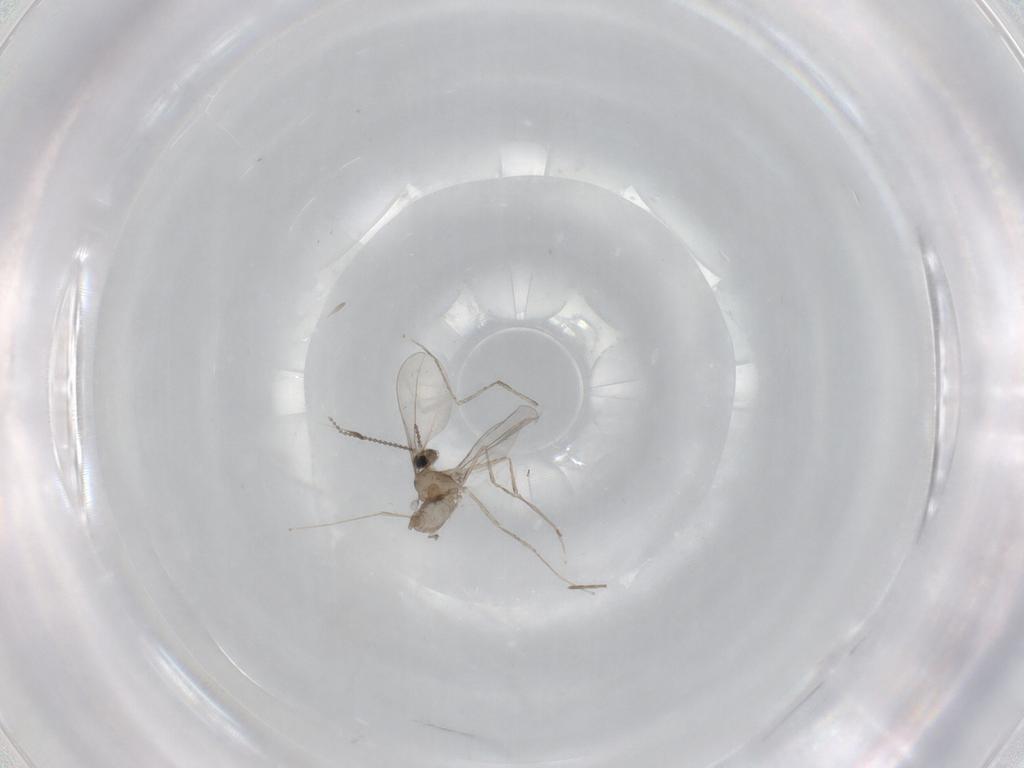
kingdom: Animalia
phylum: Arthropoda
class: Insecta
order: Diptera
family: Cecidomyiidae
